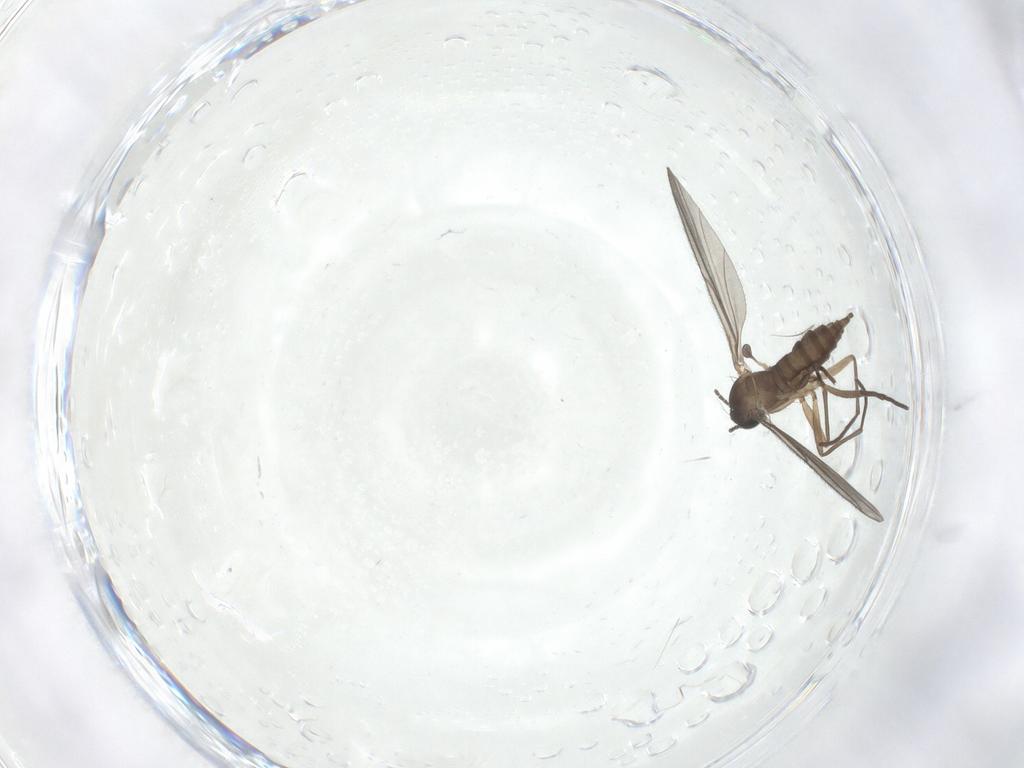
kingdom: Animalia
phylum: Arthropoda
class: Insecta
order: Diptera
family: Sciaridae
